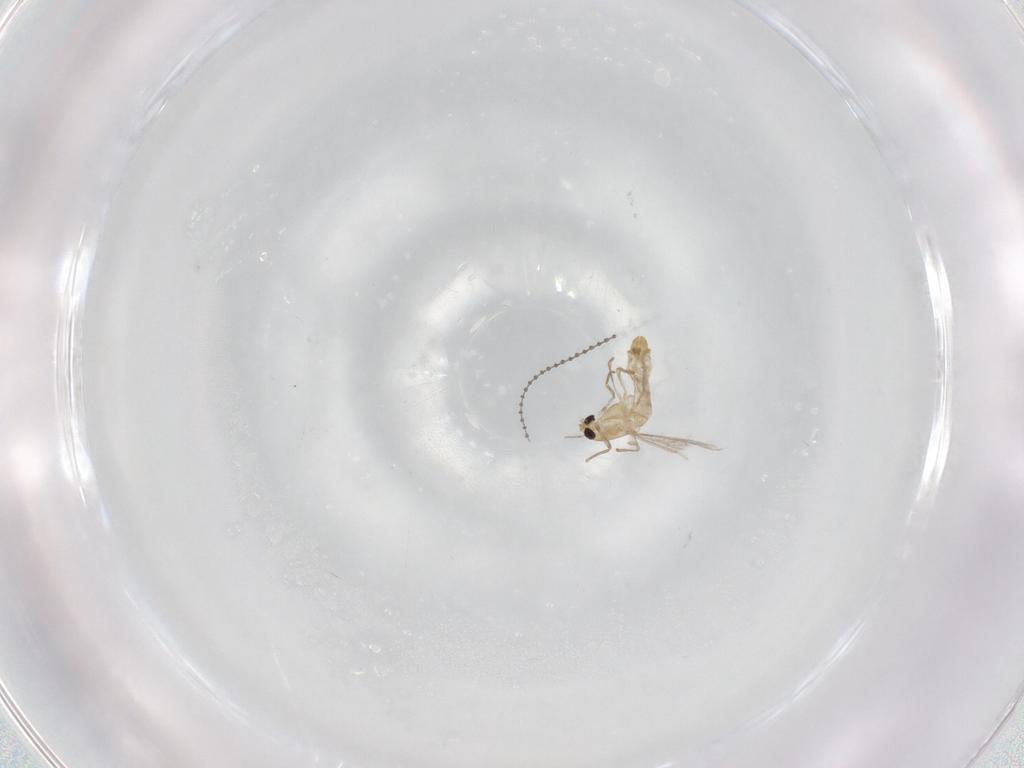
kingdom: Animalia
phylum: Arthropoda
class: Insecta
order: Diptera
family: Chironomidae
